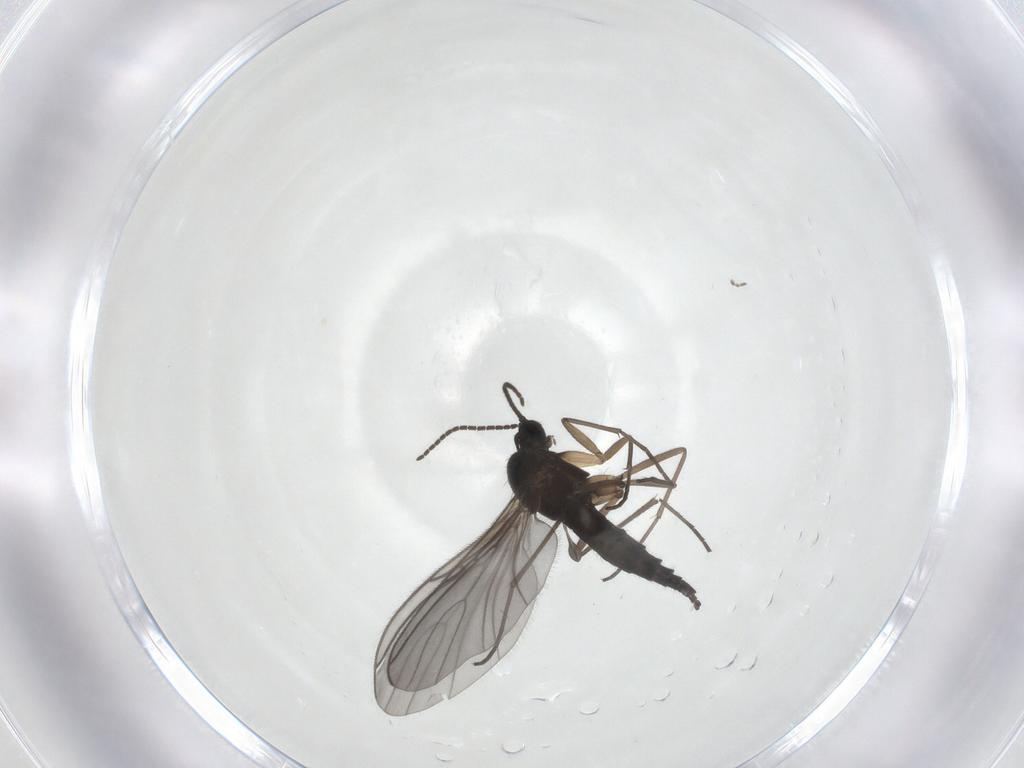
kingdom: Animalia
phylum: Arthropoda
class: Insecta
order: Diptera
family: Sciaridae
